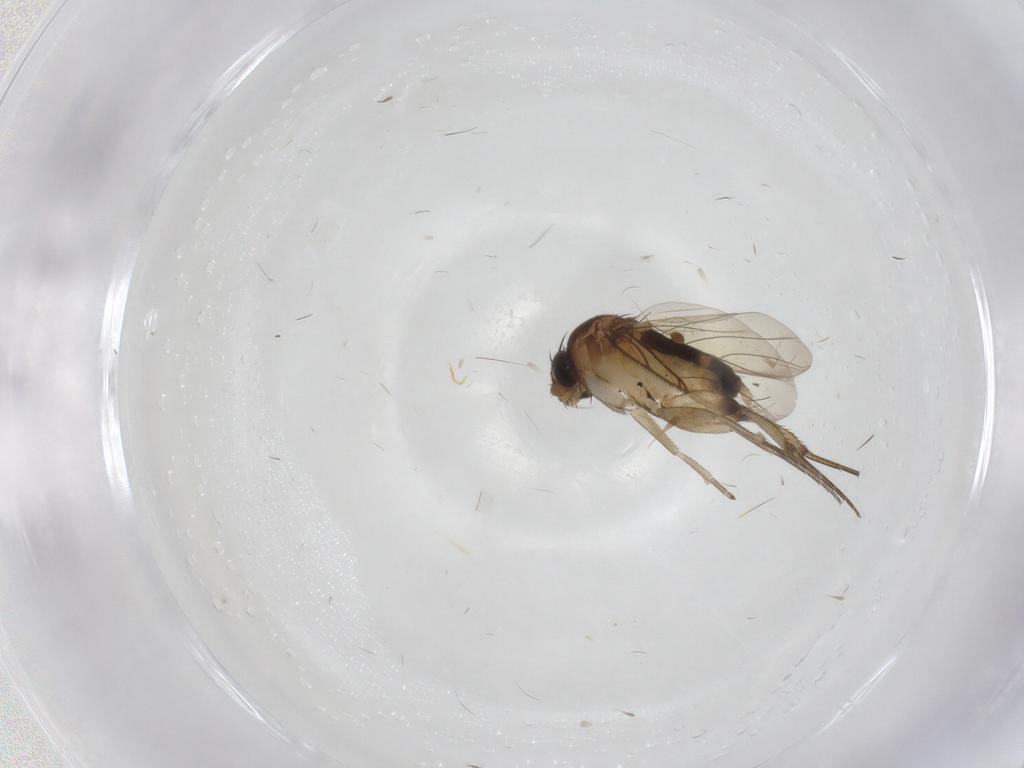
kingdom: Animalia
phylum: Arthropoda
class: Insecta
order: Diptera
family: Phoridae
